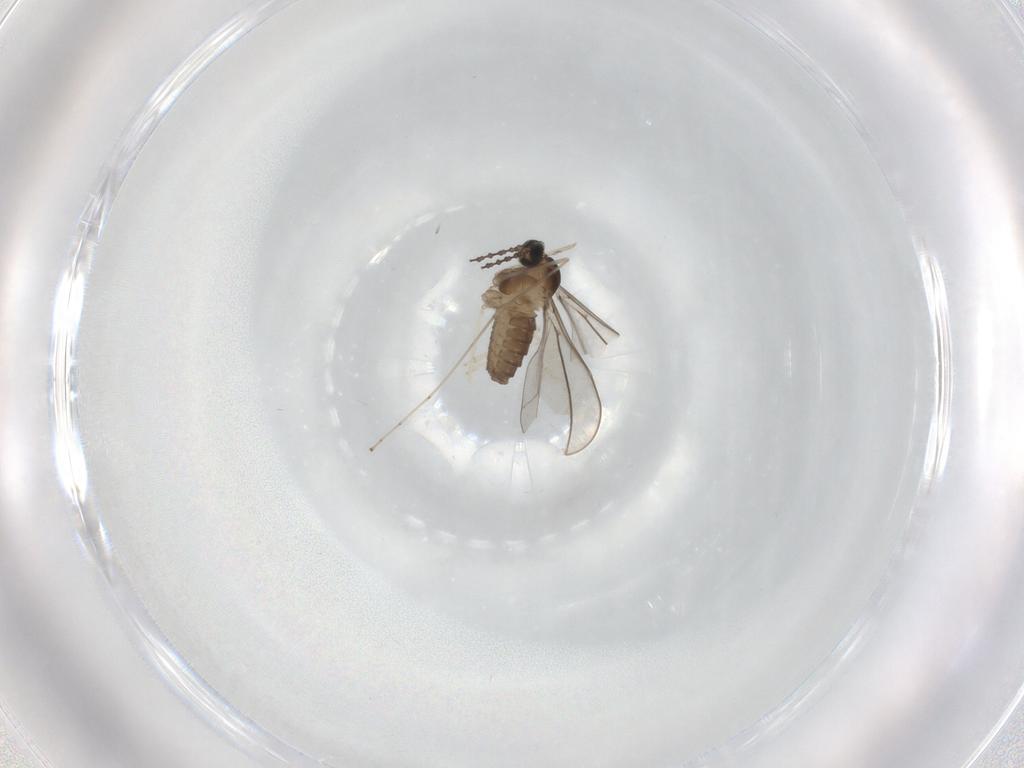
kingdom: Animalia
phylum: Arthropoda
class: Insecta
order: Diptera
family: Cecidomyiidae
